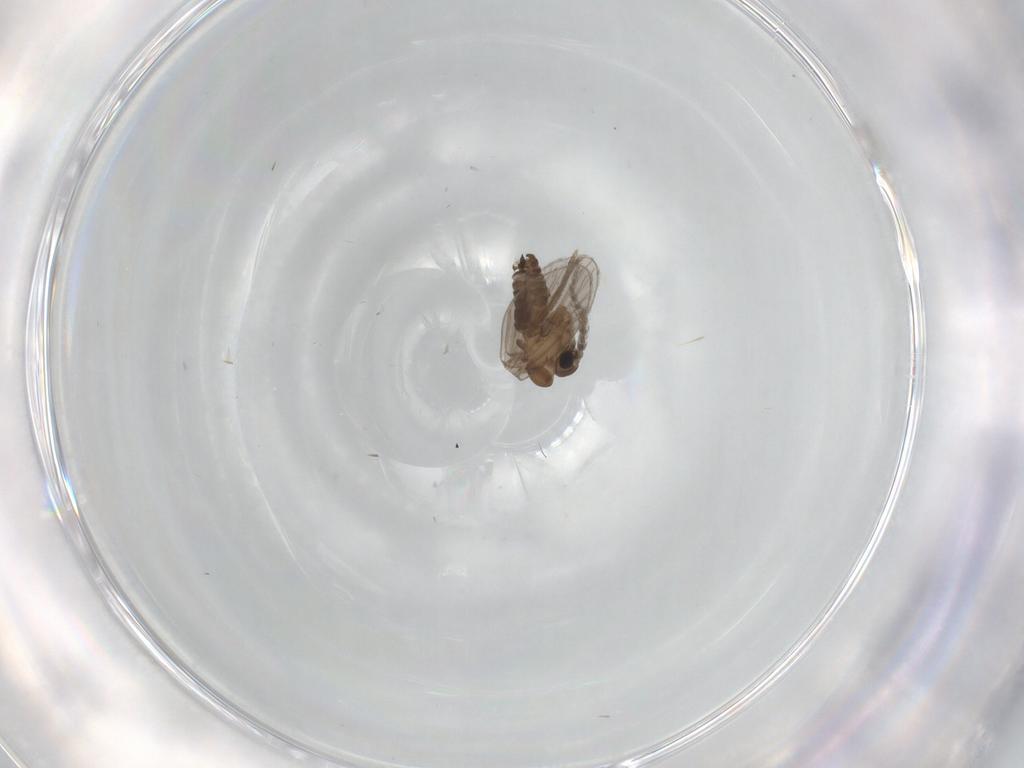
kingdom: Animalia
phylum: Arthropoda
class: Insecta
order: Diptera
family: Phoridae
